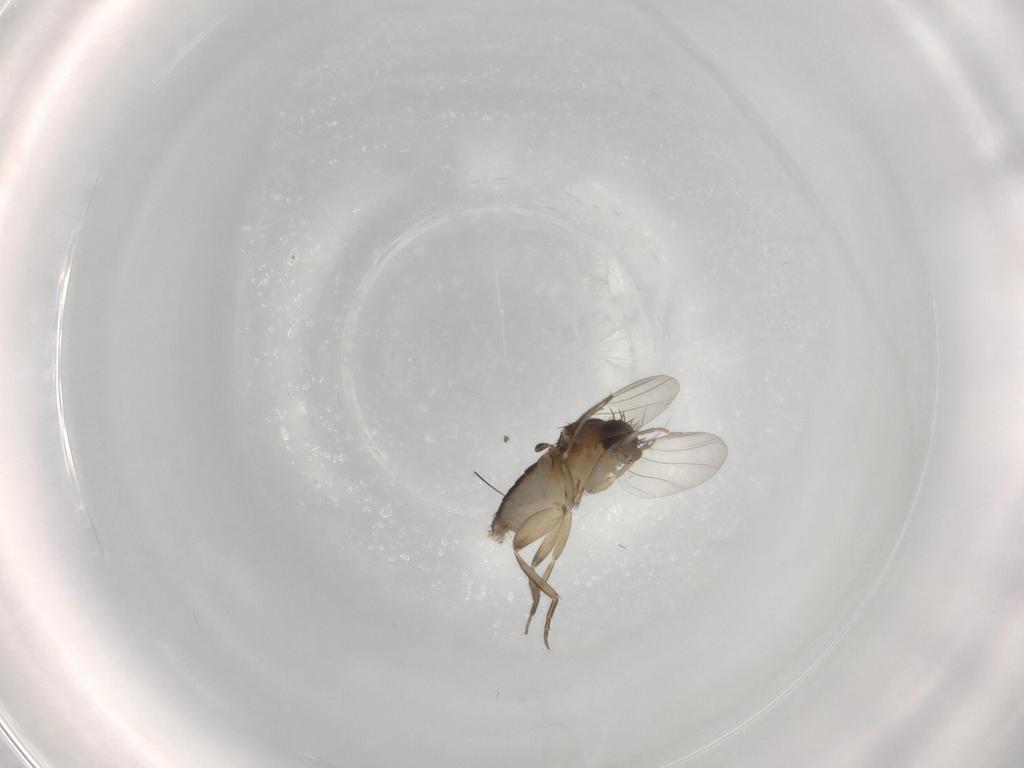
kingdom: Animalia
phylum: Arthropoda
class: Insecta
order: Diptera
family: Phoridae
